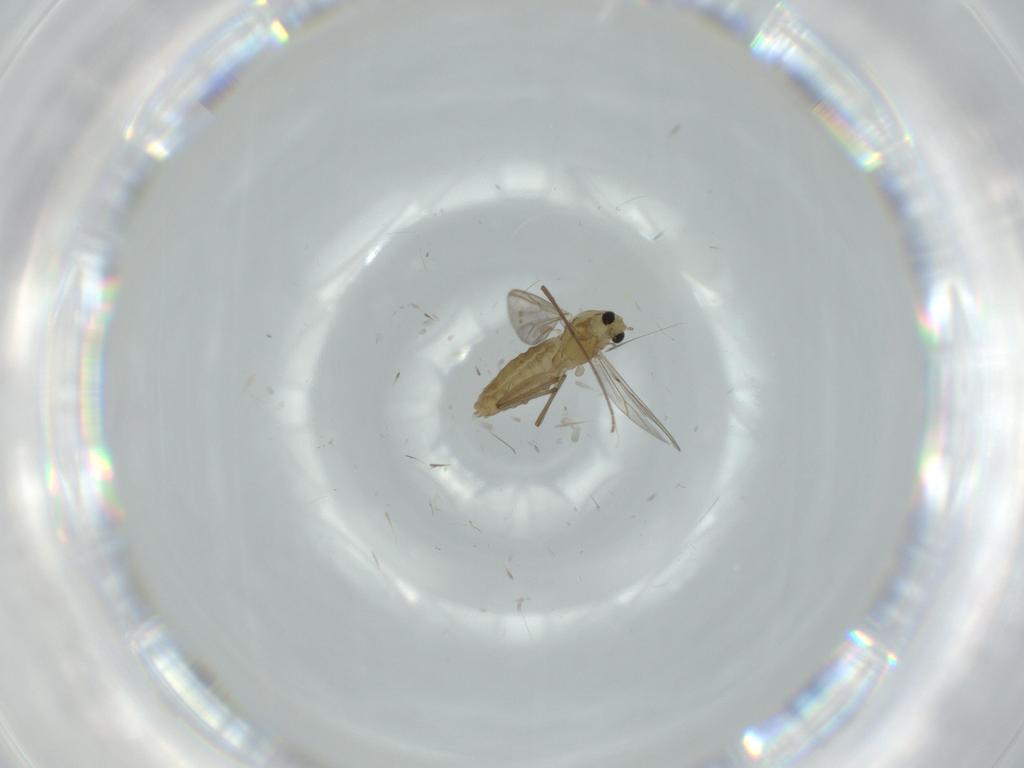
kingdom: Animalia
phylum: Arthropoda
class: Insecta
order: Diptera
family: Chironomidae
